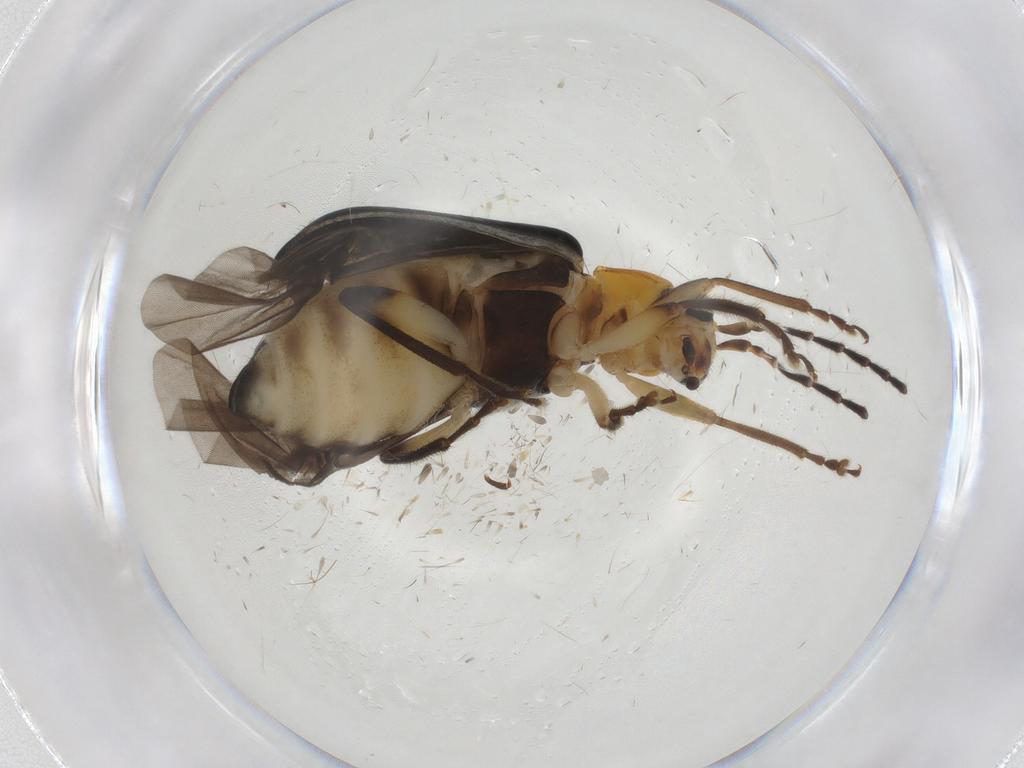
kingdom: Animalia
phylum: Arthropoda
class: Insecta
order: Coleoptera
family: Chrysomelidae
